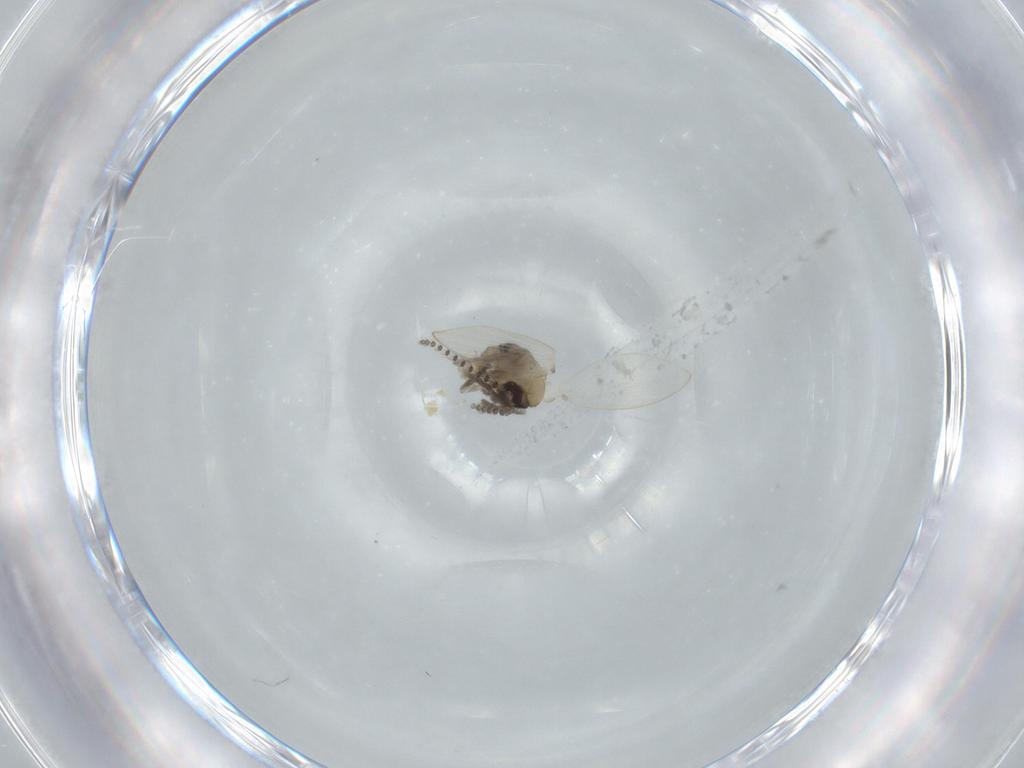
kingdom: Animalia
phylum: Arthropoda
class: Insecta
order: Diptera
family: Psychodidae
